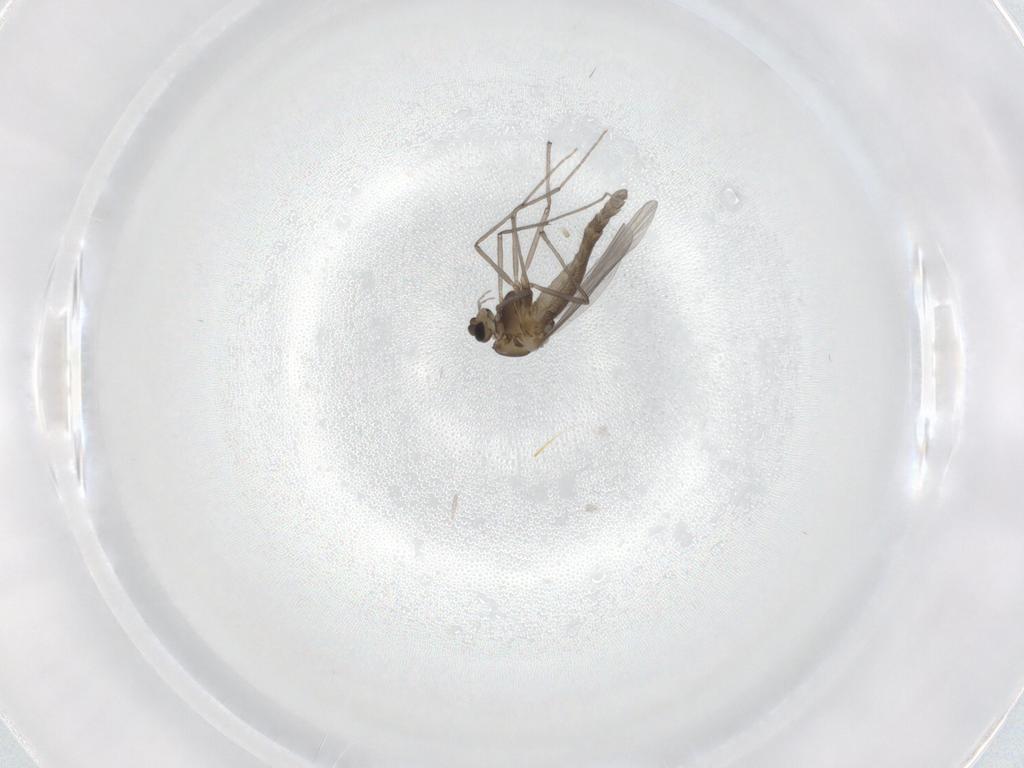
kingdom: Animalia
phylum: Arthropoda
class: Insecta
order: Diptera
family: Chironomidae
